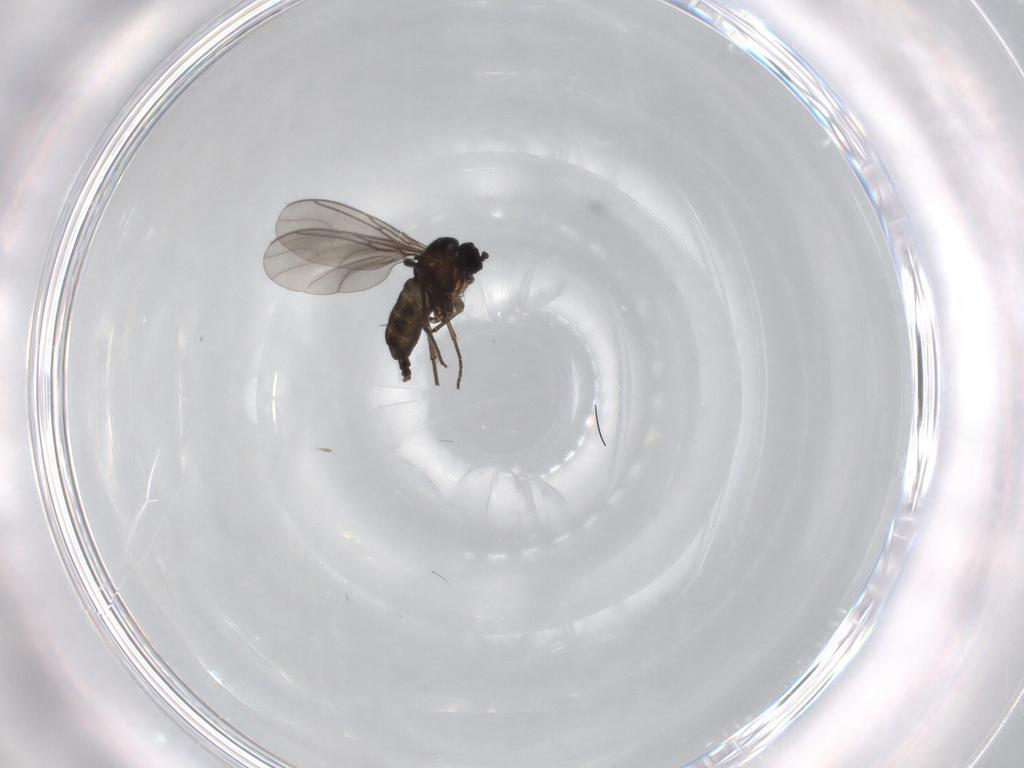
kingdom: Animalia
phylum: Arthropoda
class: Insecta
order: Diptera
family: Sciaridae
